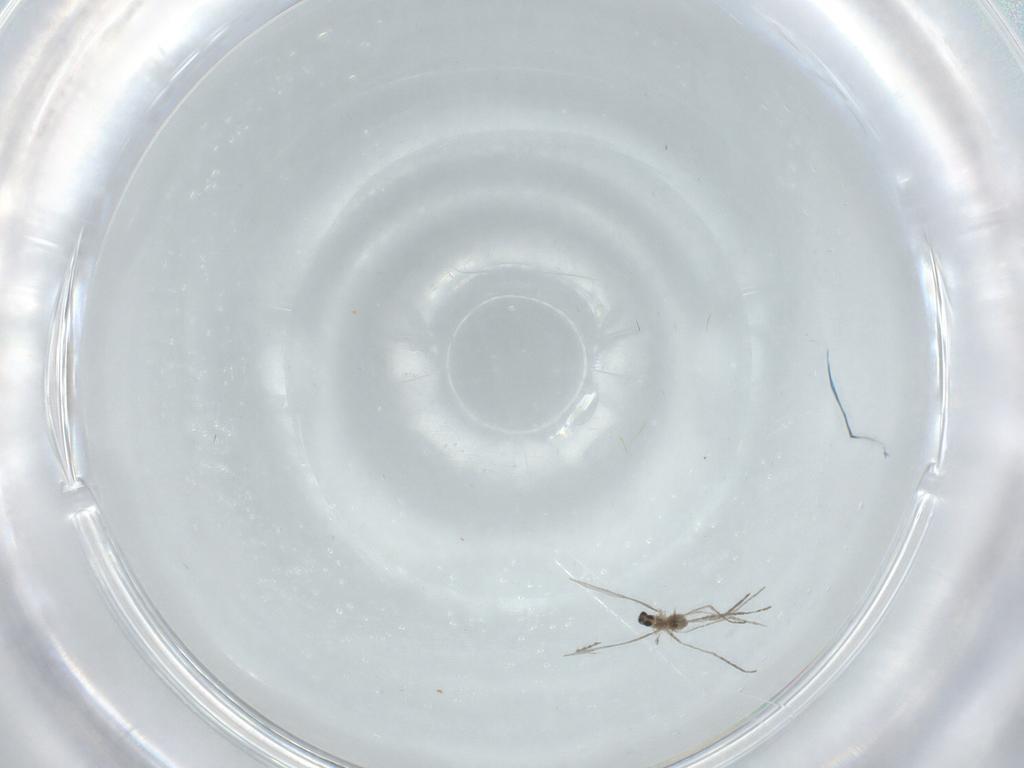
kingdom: Animalia
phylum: Arthropoda
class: Insecta
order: Diptera
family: Cecidomyiidae
